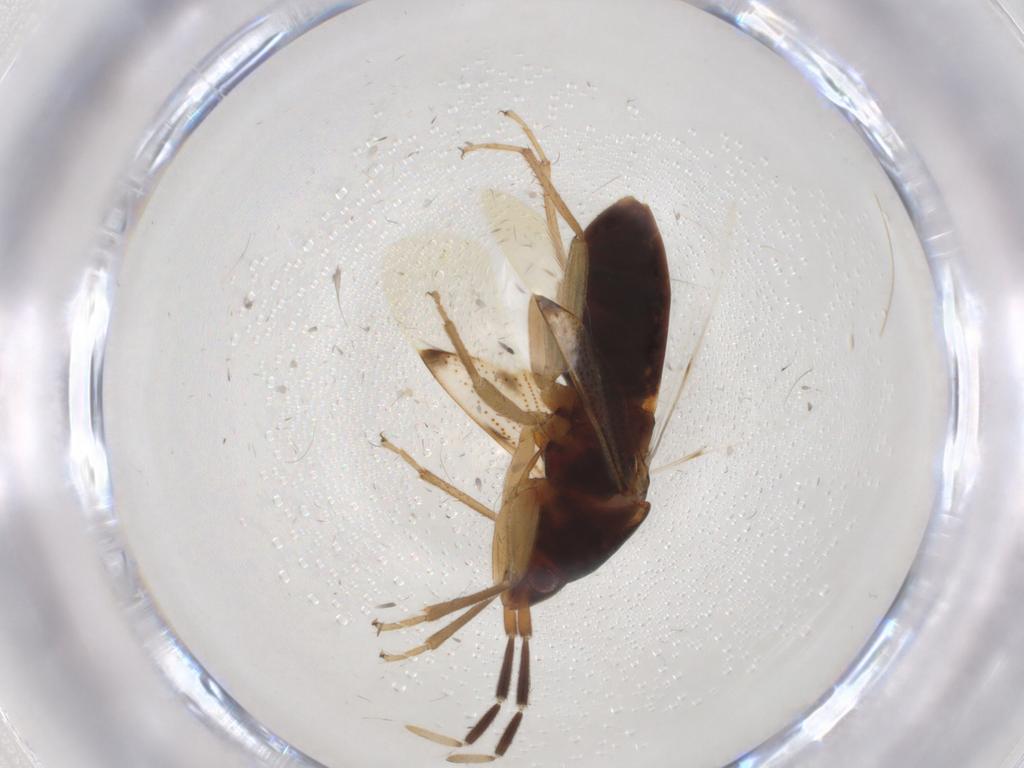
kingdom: Animalia
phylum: Arthropoda
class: Insecta
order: Hemiptera
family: Rhyparochromidae
